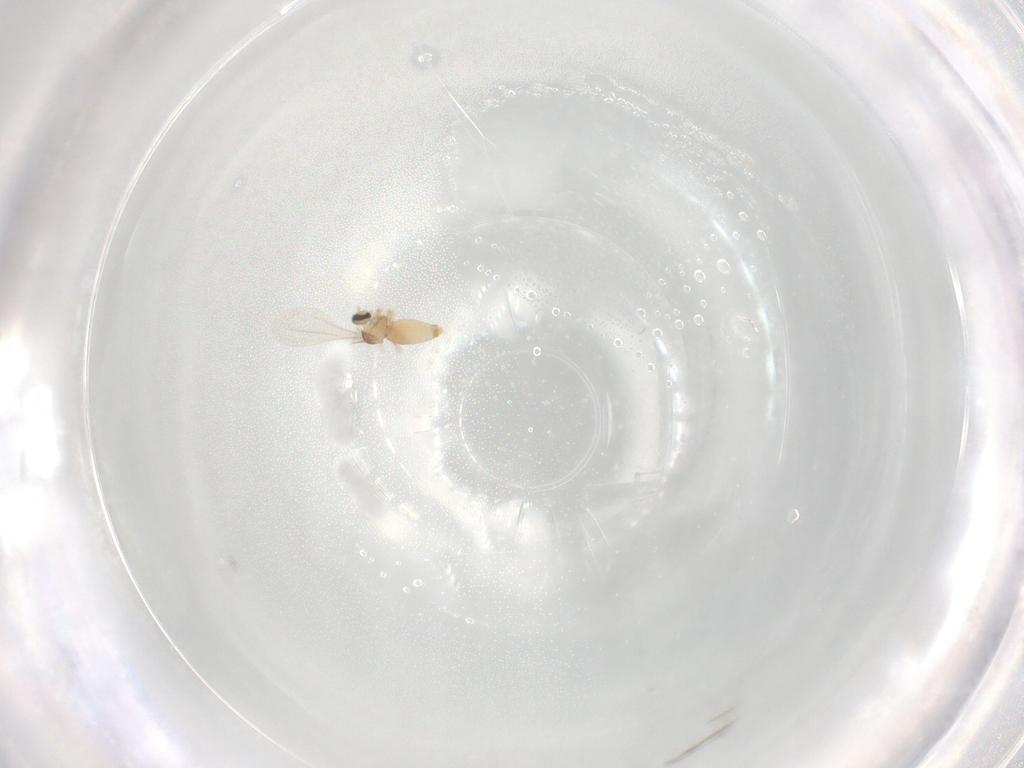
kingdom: Animalia
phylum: Arthropoda
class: Insecta
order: Diptera
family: Cecidomyiidae
